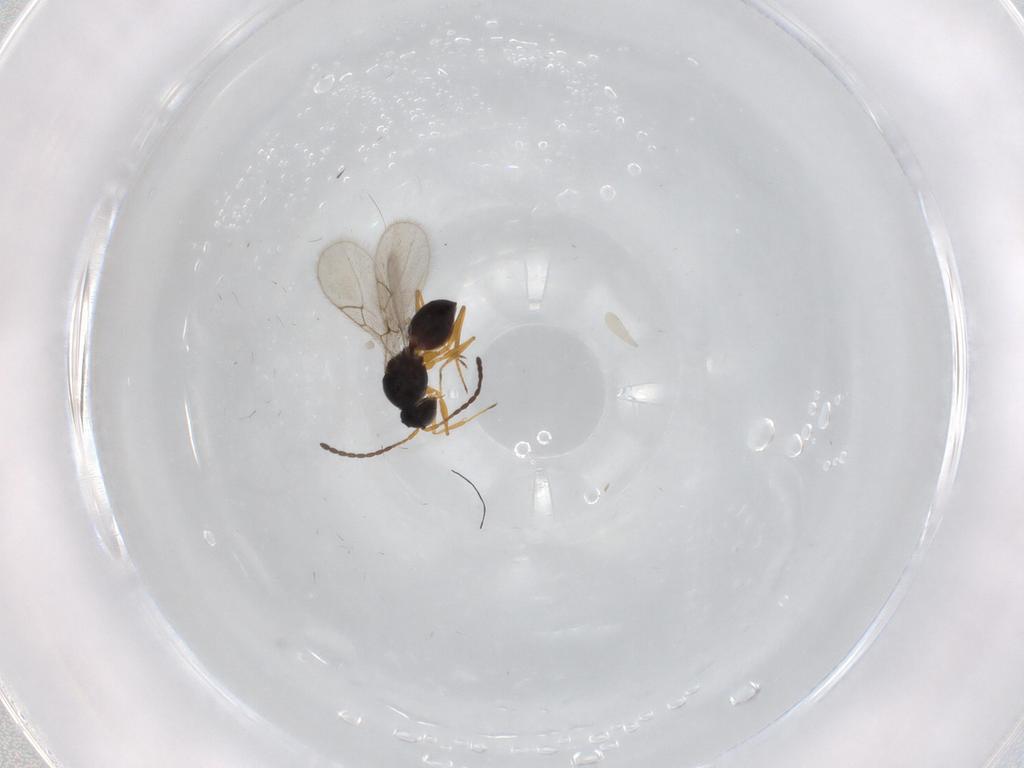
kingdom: Animalia
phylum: Arthropoda
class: Insecta
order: Hymenoptera
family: Figitidae
